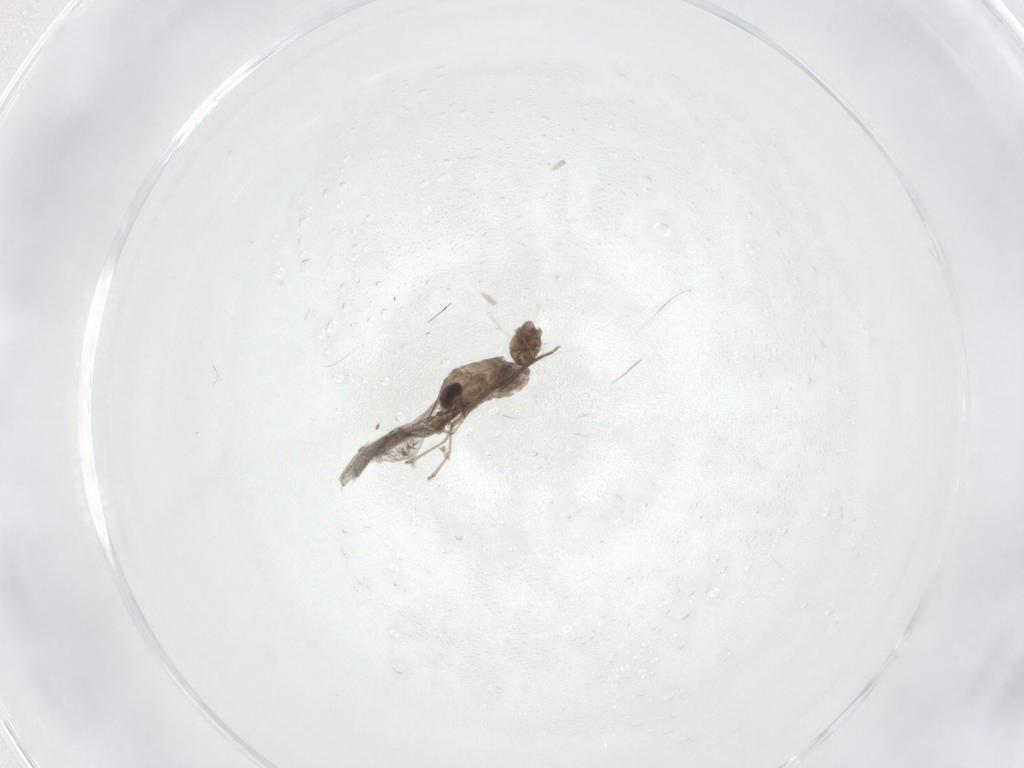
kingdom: Animalia
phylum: Arthropoda
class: Insecta
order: Diptera
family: Cecidomyiidae
